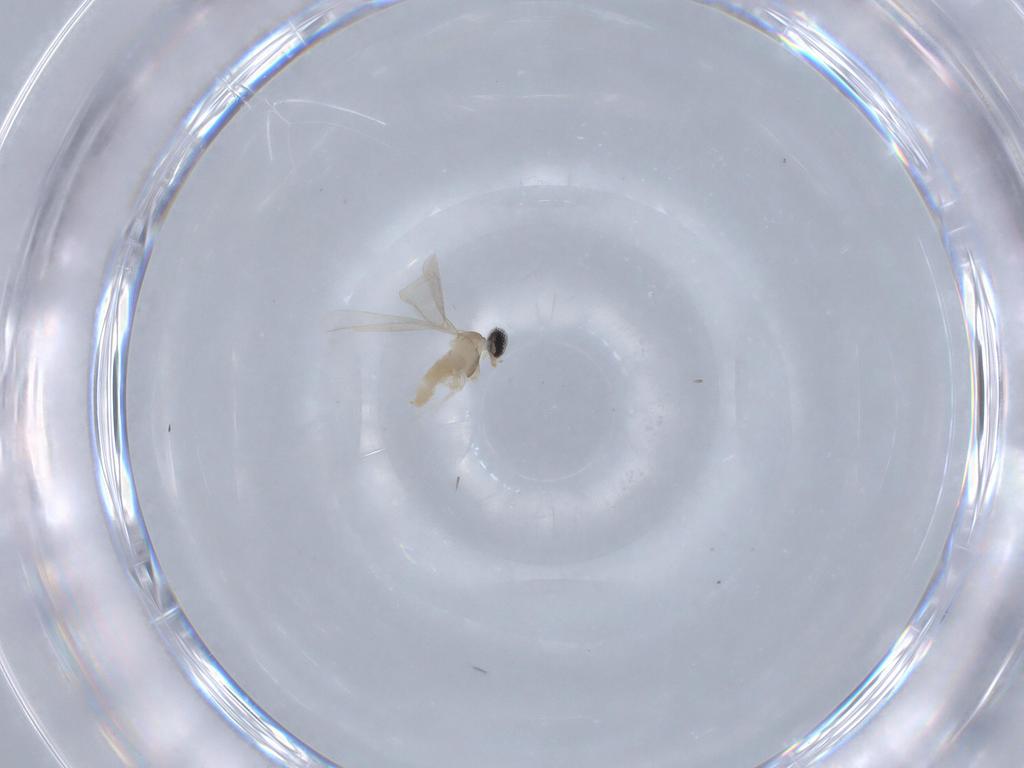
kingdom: Animalia
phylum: Arthropoda
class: Insecta
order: Diptera
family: Cecidomyiidae
